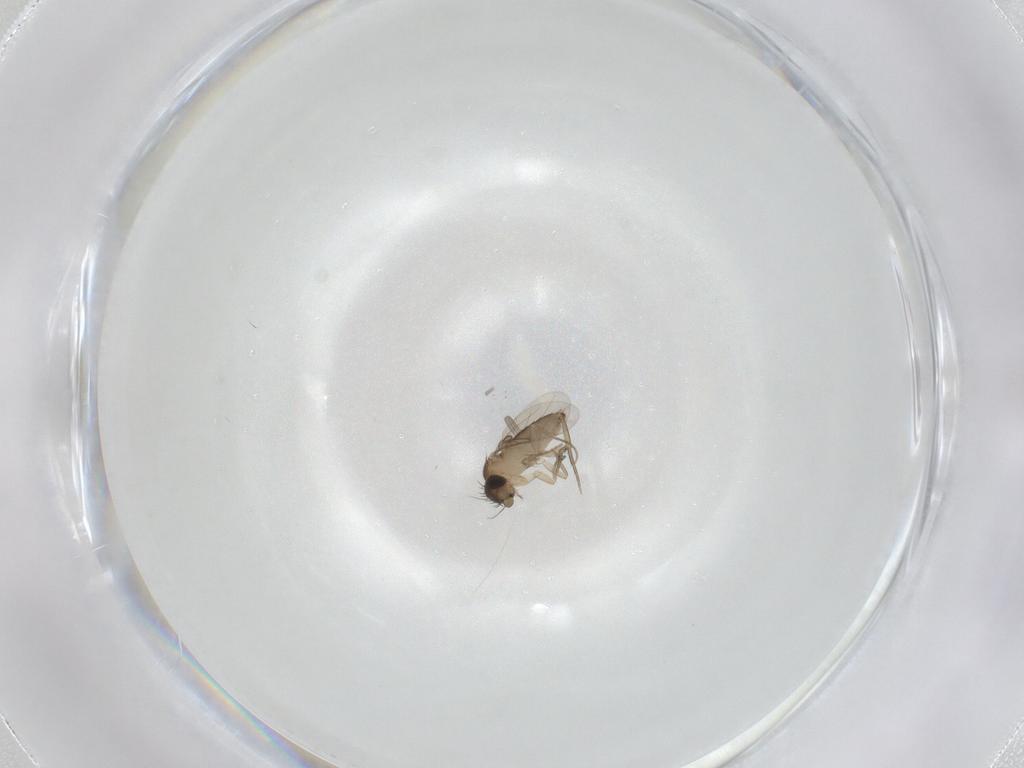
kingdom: Animalia
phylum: Arthropoda
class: Insecta
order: Diptera
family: Phoridae
